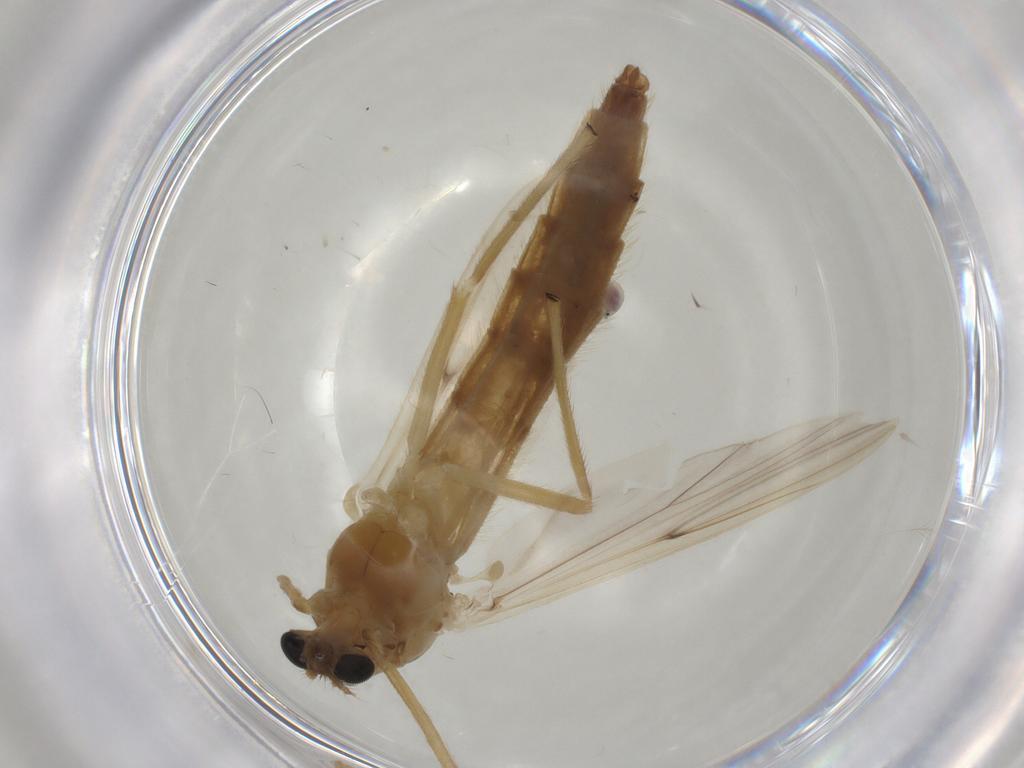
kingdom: Animalia
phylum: Arthropoda
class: Insecta
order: Diptera
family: Chironomidae
